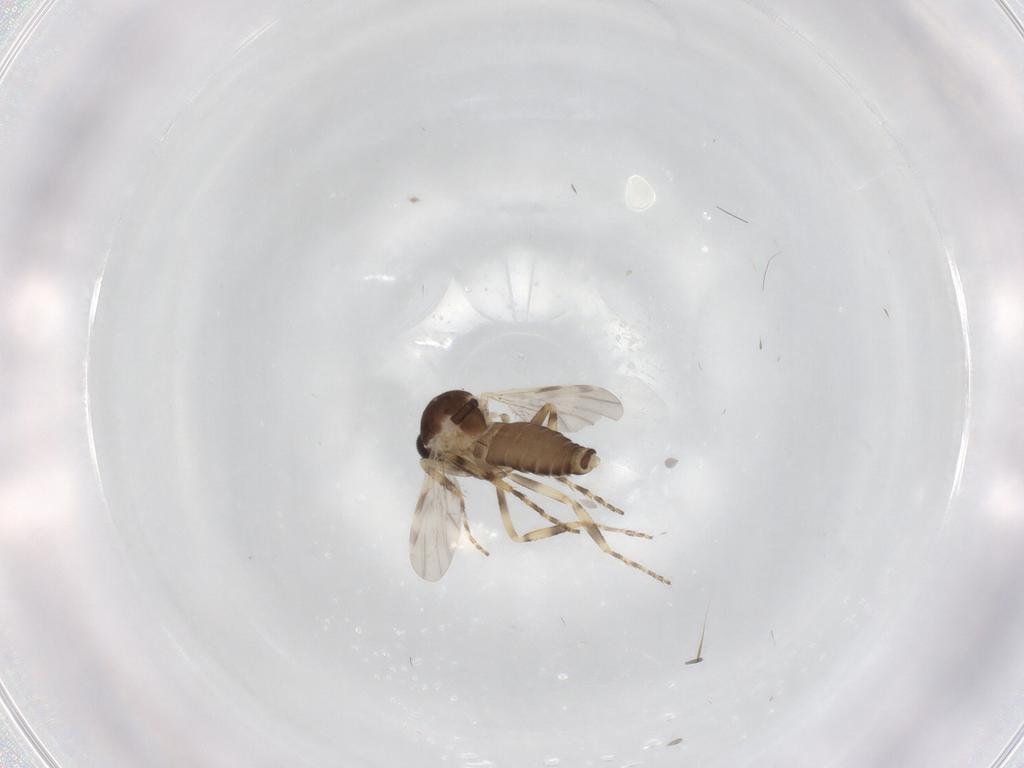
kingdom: Animalia
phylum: Arthropoda
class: Insecta
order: Diptera
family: Ceratopogonidae
